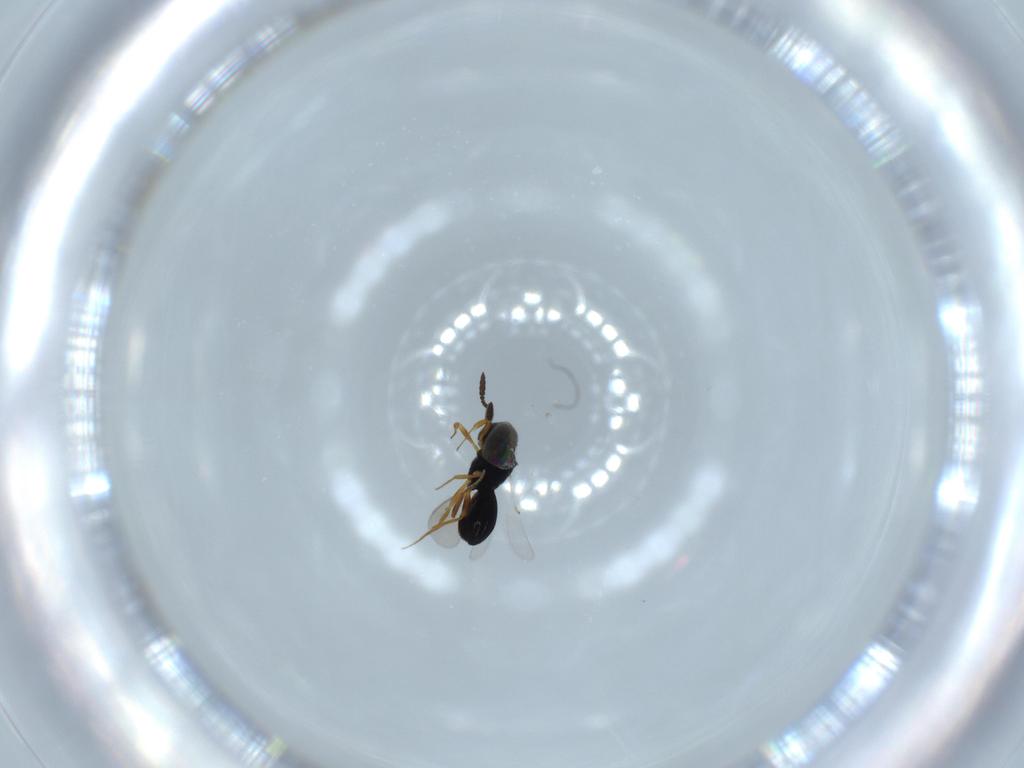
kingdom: Animalia
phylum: Arthropoda
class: Insecta
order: Hymenoptera
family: Scelionidae
